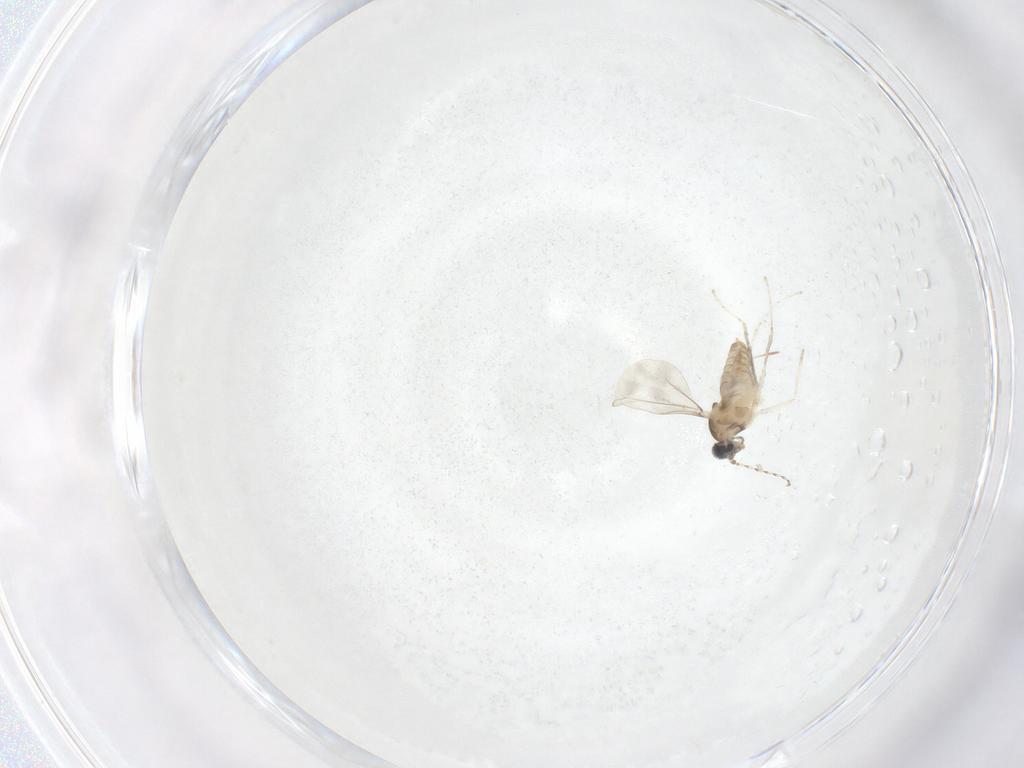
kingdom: Animalia
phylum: Arthropoda
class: Insecta
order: Diptera
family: Cecidomyiidae
